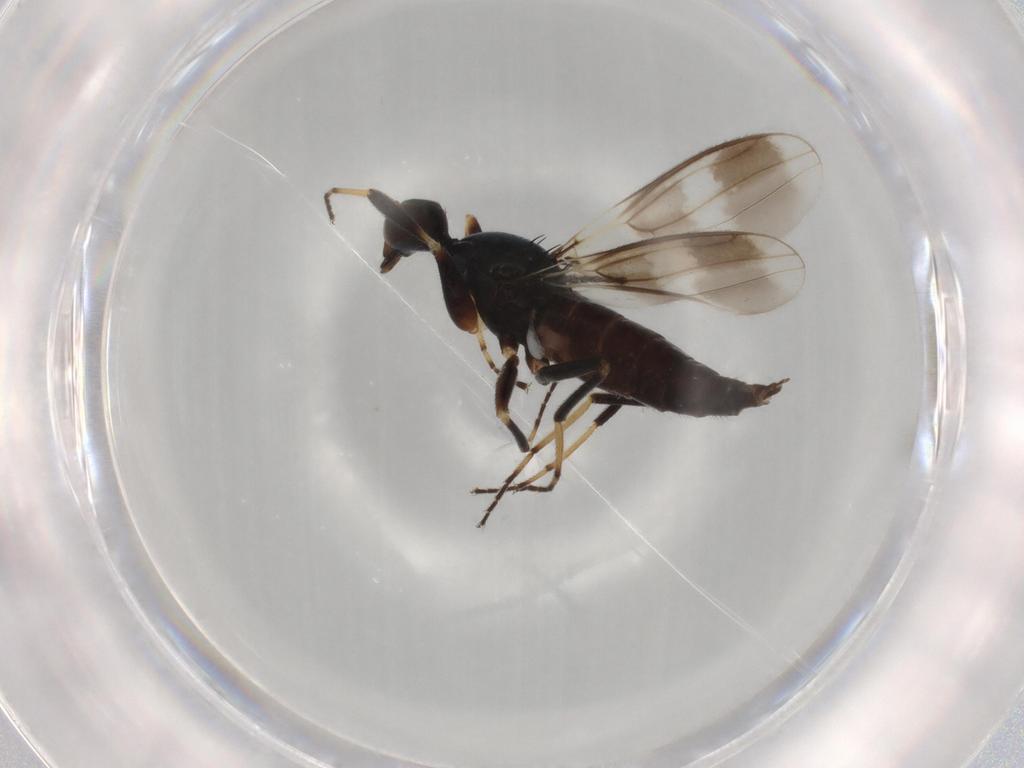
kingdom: Animalia
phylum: Arthropoda
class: Insecta
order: Diptera
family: Hybotidae
